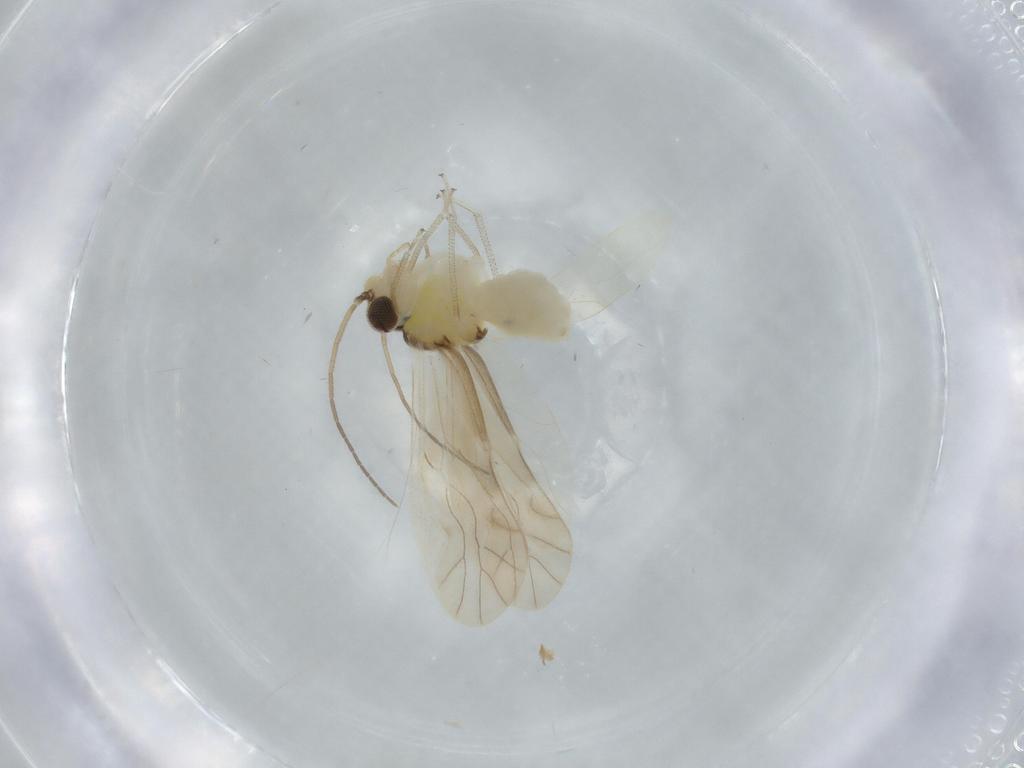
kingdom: Animalia
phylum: Arthropoda
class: Insecta
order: Psocodea
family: Caeciliusidae
